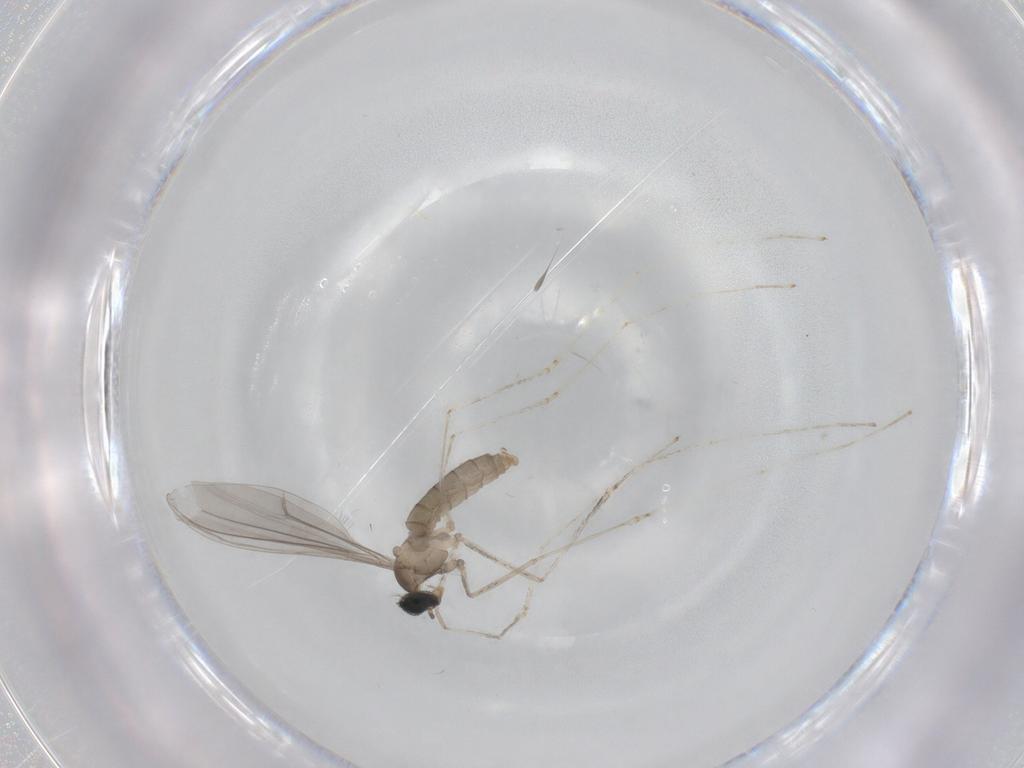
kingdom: Animalia
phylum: Arthropoda
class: Insecta
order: Diptera
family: Cecidomyiidae
